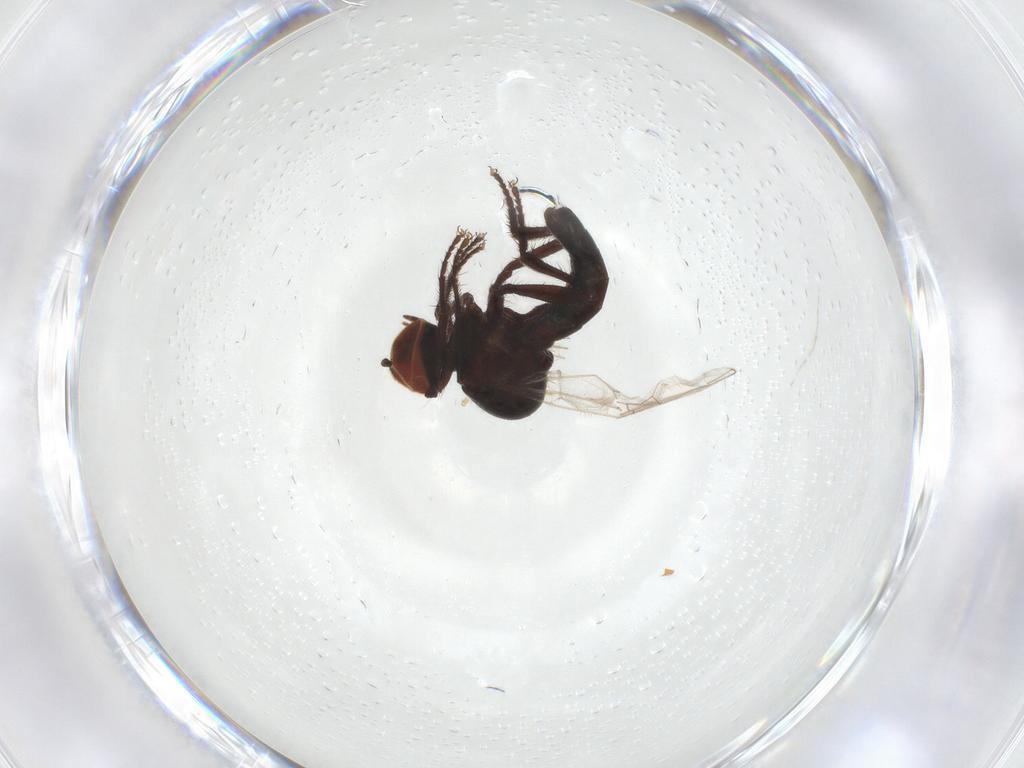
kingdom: Animalia
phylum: Arthropoda
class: Insecta
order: Diptera
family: Hybotidae
